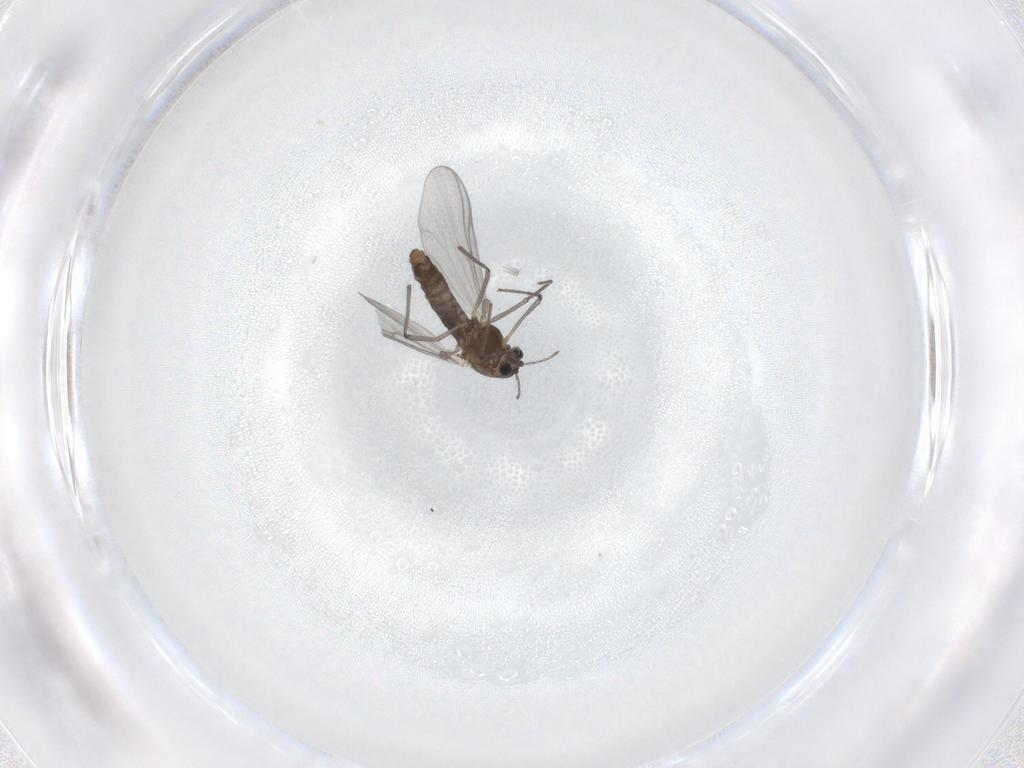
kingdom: Animalia
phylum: Arthropoda
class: Insecta
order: Diptera
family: Chironomidae
